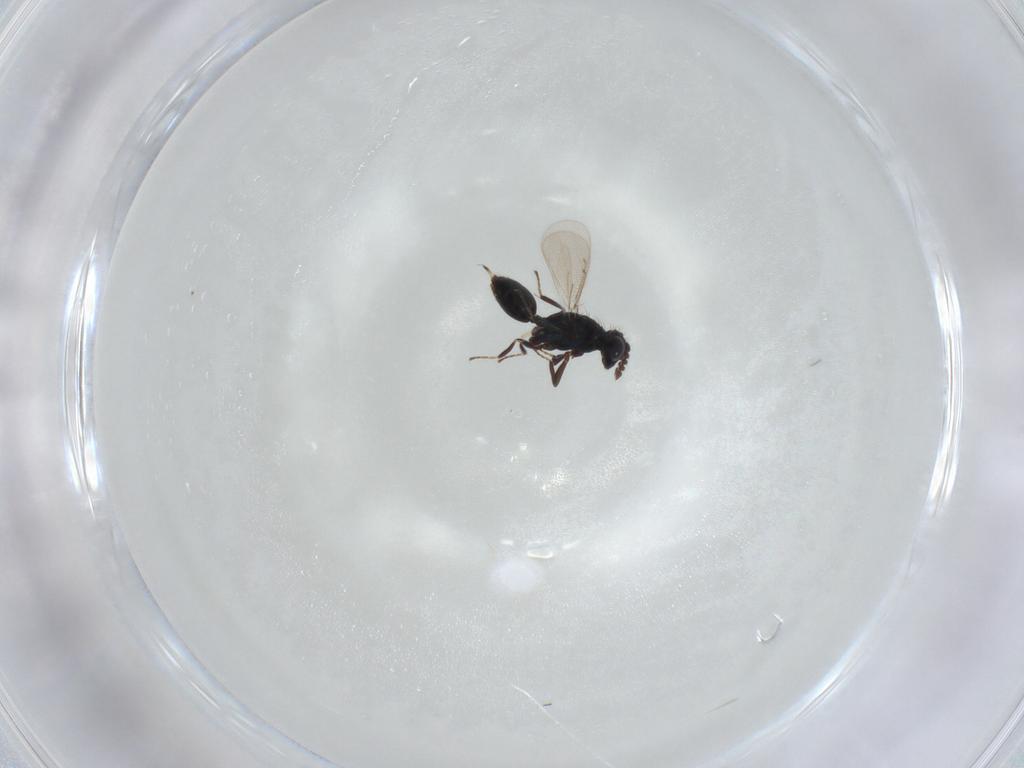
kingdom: Animalia
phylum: Arthropoda
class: Insecta
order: Hymenoptera
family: Eulophidae
